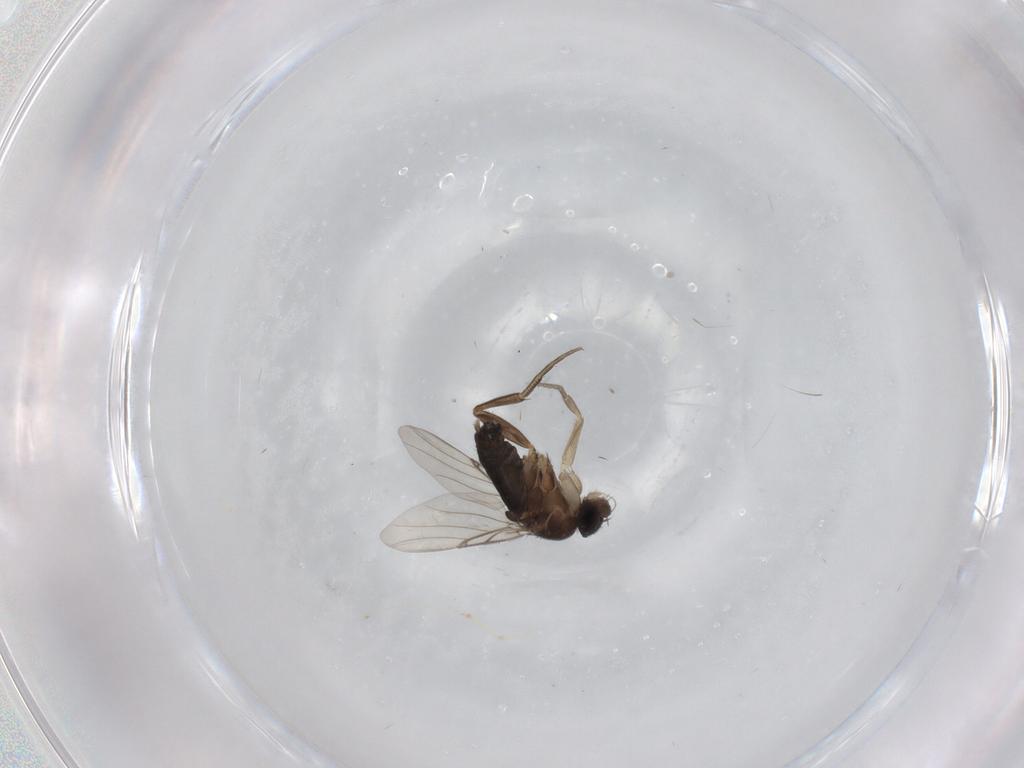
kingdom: Animalia
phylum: Arthropoda
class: Insecta
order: Diptera
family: Phoridae
